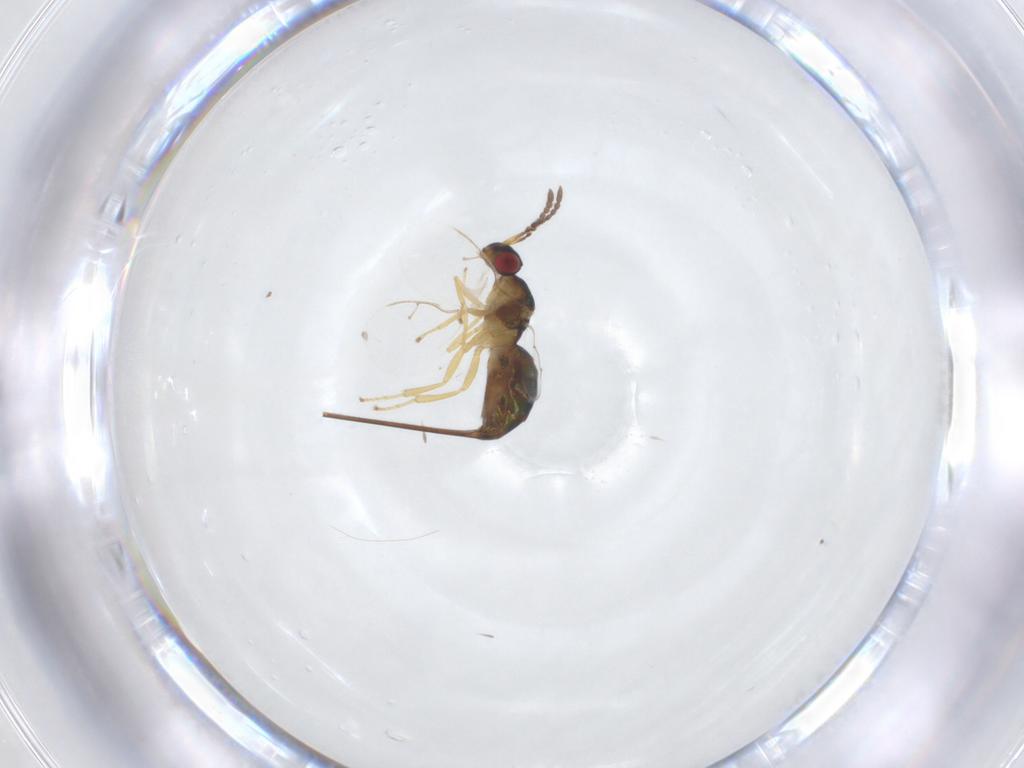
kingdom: Animalia
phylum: Arthropoda
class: Insecta
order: Hymenoptera
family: Pteromalidae
